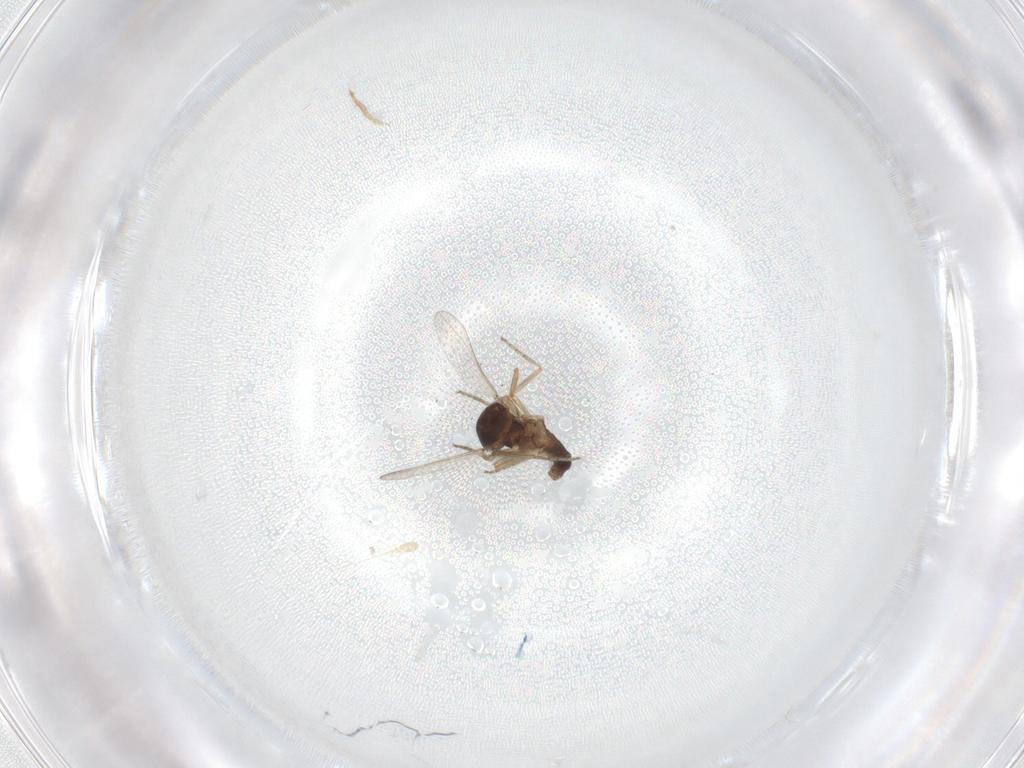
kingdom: Animalia
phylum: Arthropoda
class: Insecta
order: Diptera
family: Ceratopogonidae
